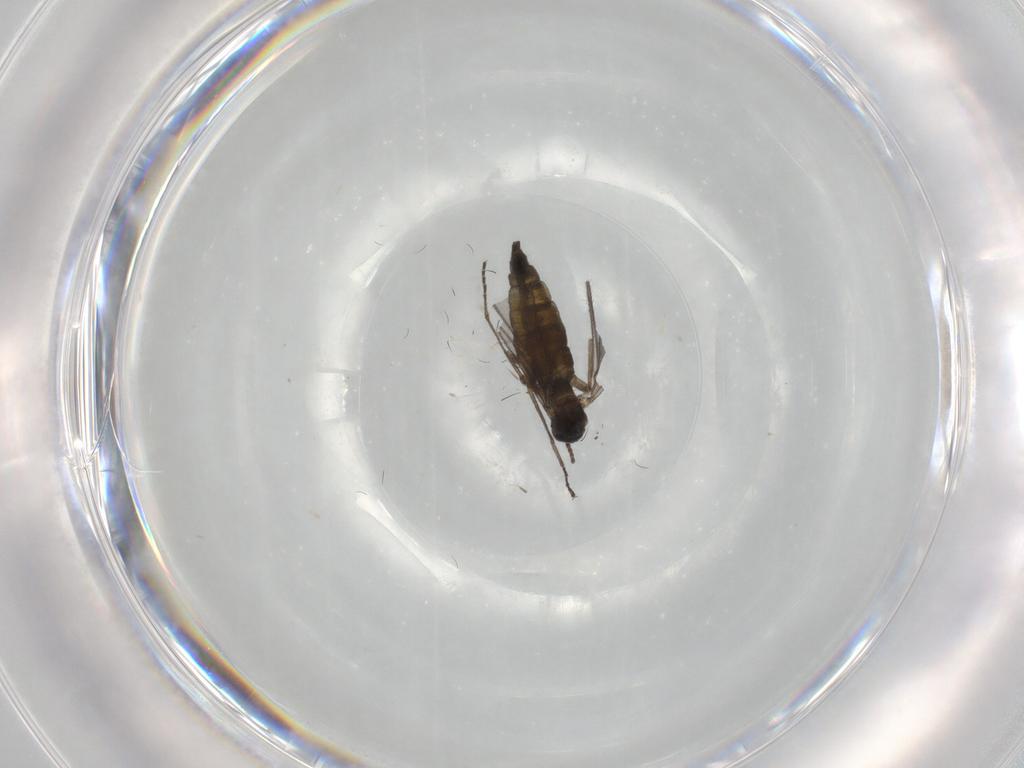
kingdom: Animalia
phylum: Arthropoda
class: Insecta
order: Diptera
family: Sciaridae
